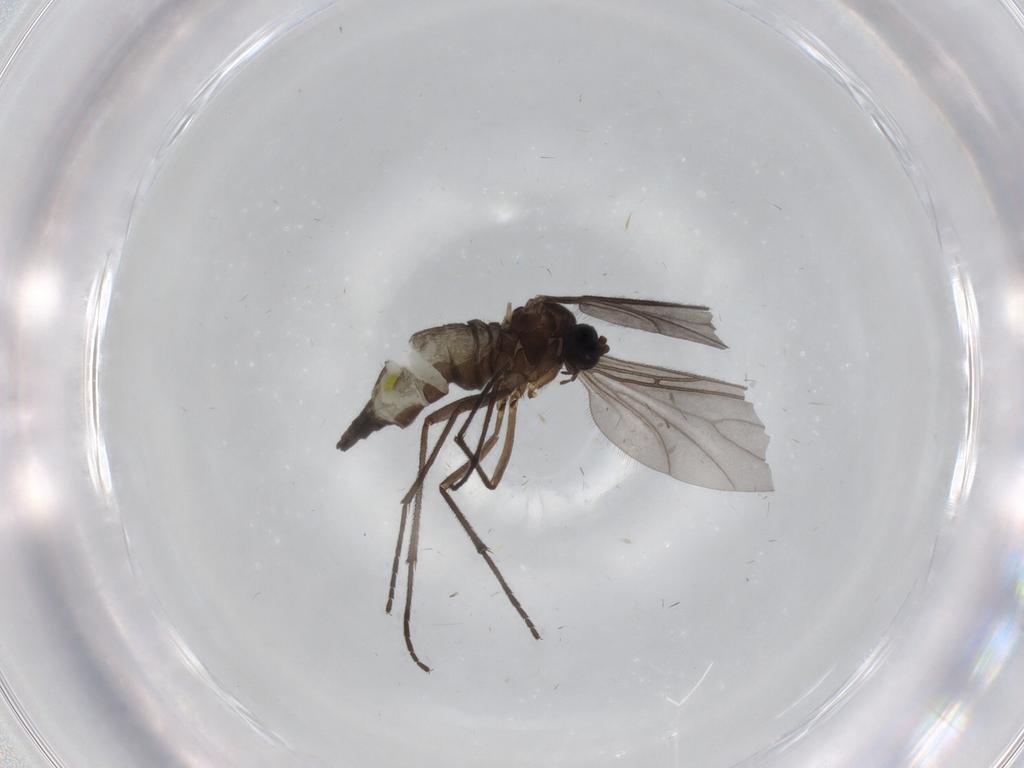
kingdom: Animalia
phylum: Arthropoda
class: Insecta
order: Diptera
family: Sciaridae
